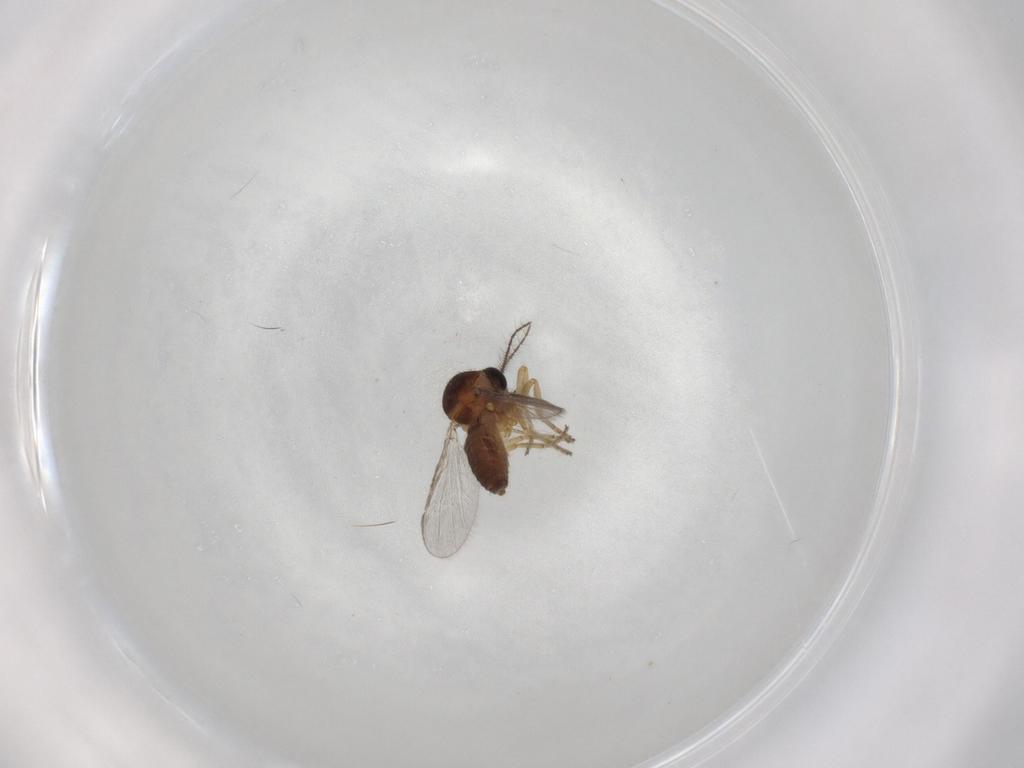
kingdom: Animalia
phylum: Arthropoda
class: Insecta
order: Diptera
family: Ceratopogonidae
